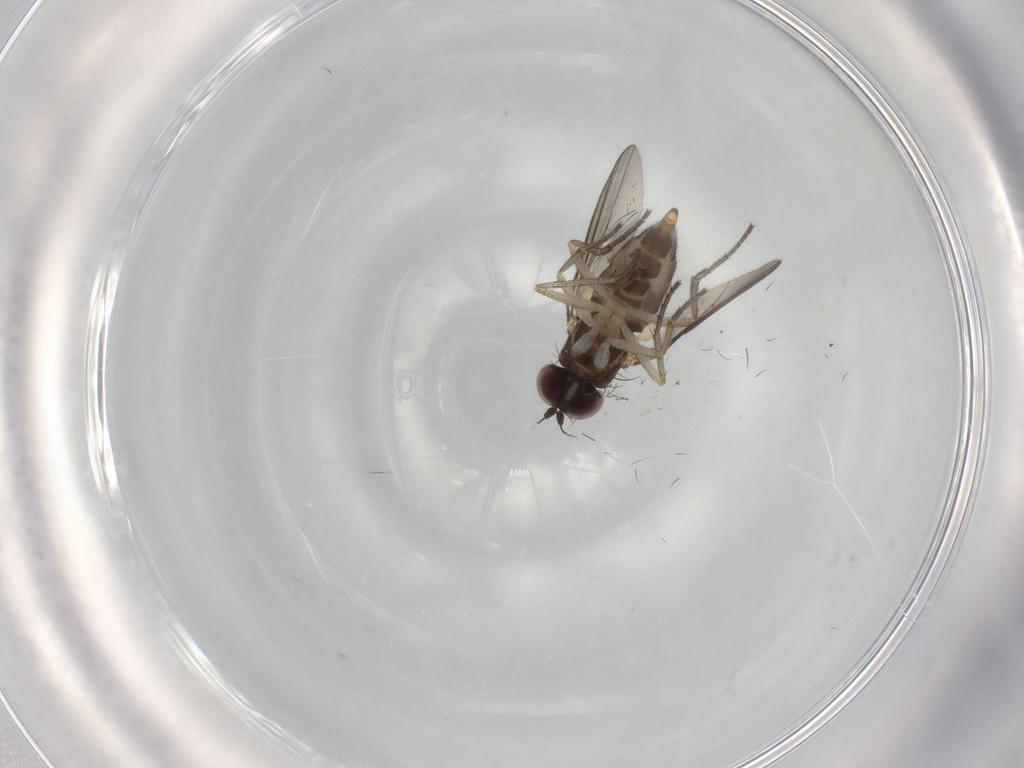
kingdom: Animalia
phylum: Arthropoda
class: Insecta
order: Diptera
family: Dolichopodidae
